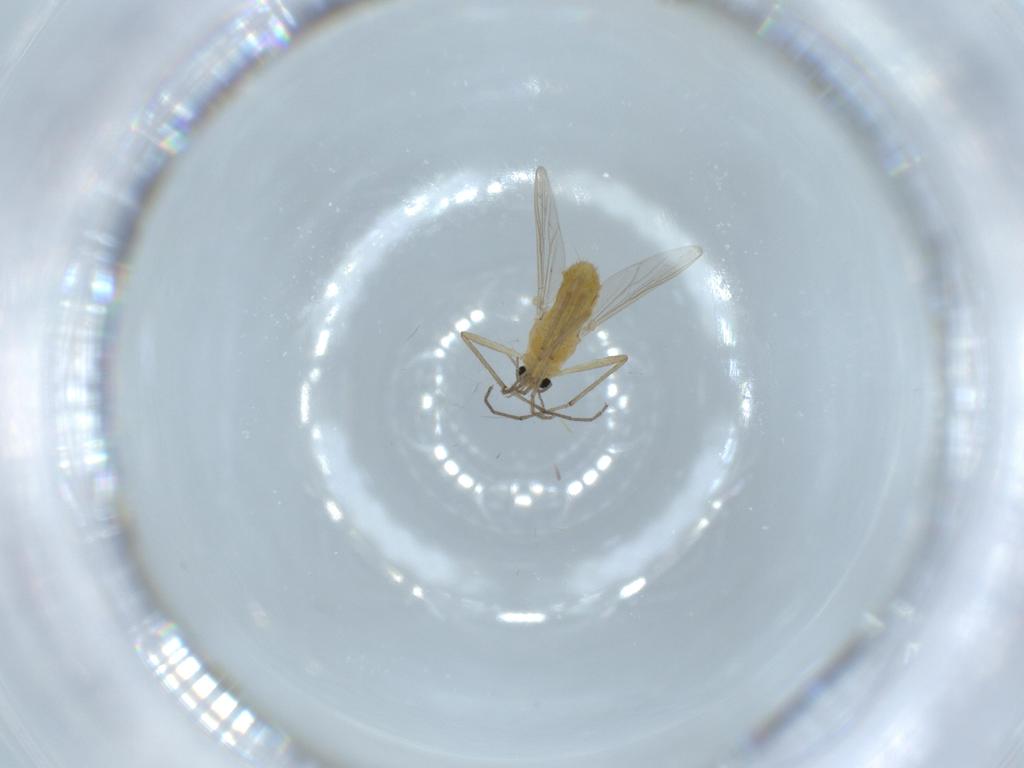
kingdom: Animalia
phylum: Arthropoda
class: Insecta
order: Diptera
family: Chironomidae
